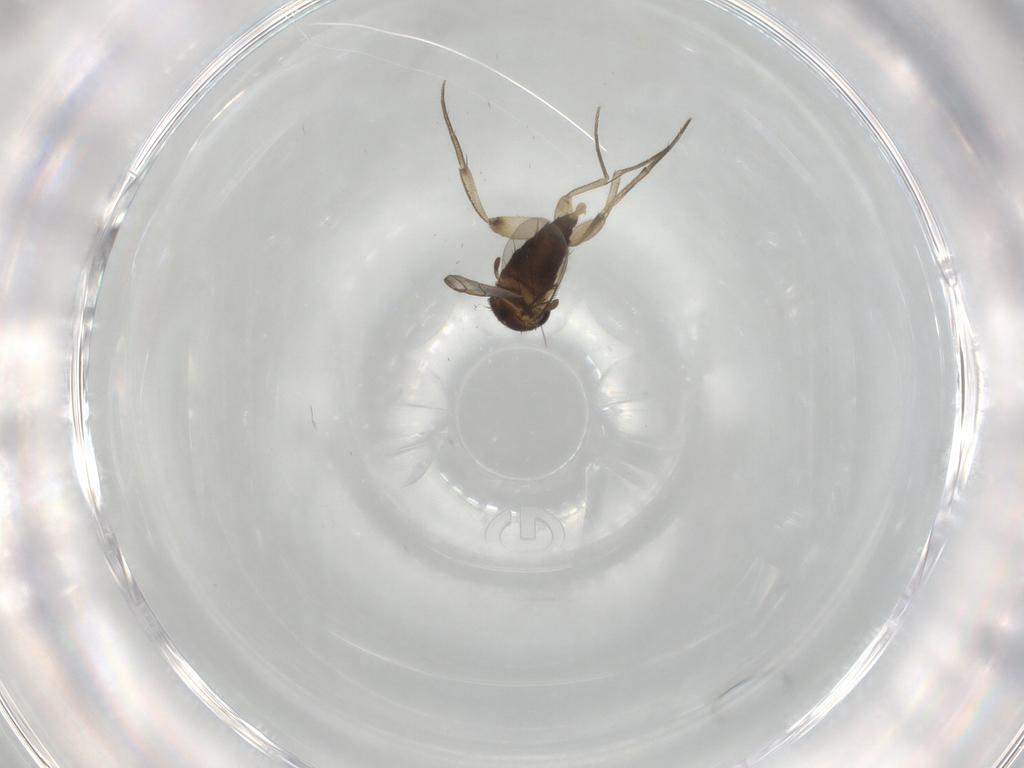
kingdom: Animalia
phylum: Arthropoda
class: Insecta
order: Diptera
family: Phoridae
